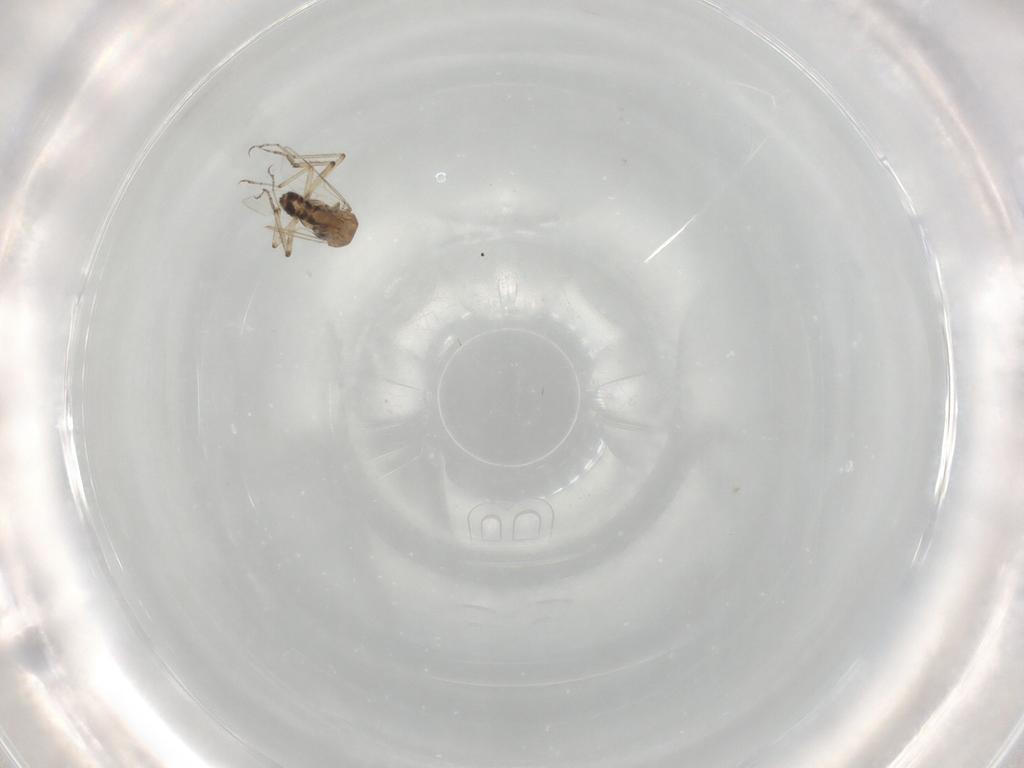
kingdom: Animalia
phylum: Arthropoda
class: Insecta
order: Diptera
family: Ceratopogonidae
